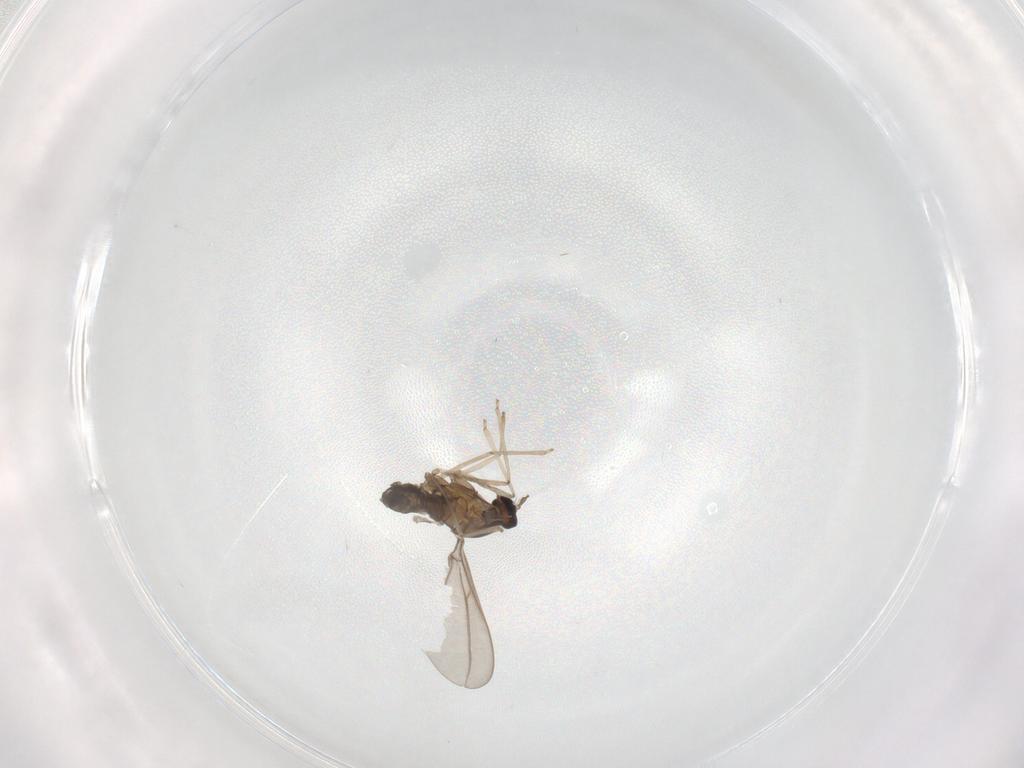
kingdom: Animalia
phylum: Arthropoda
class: Insecta
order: Diptera
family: Cecidomyiidae
